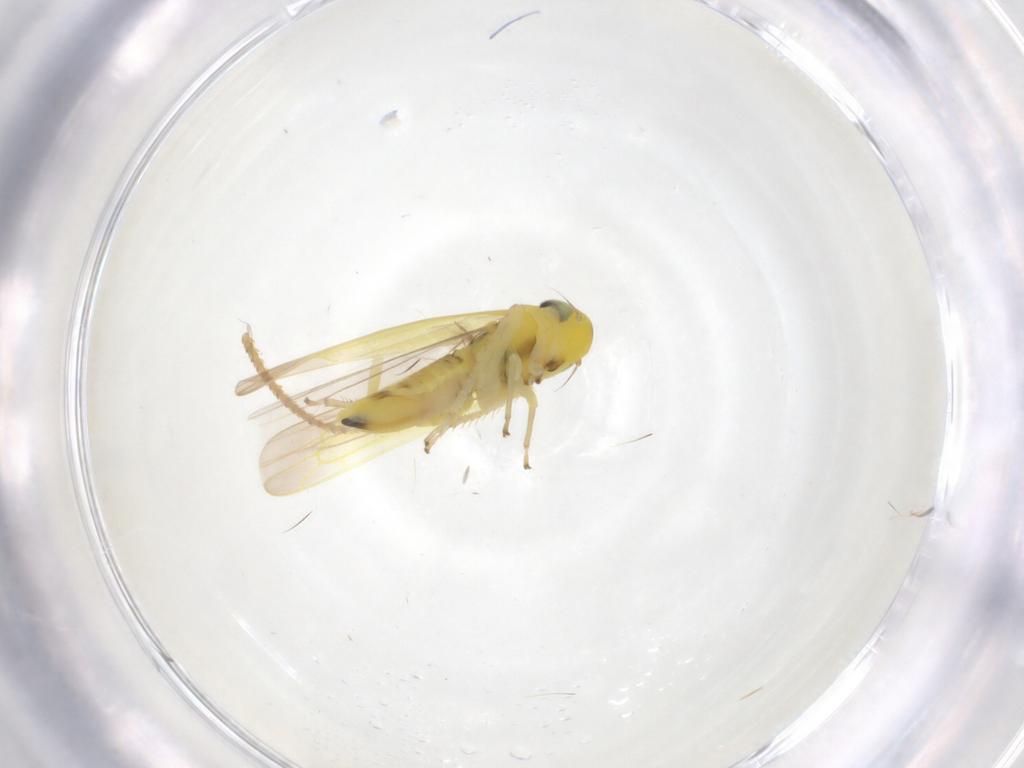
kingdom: Animalia
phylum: Arthropoda
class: Insecta
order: Hemiptera
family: Cicadellidae
